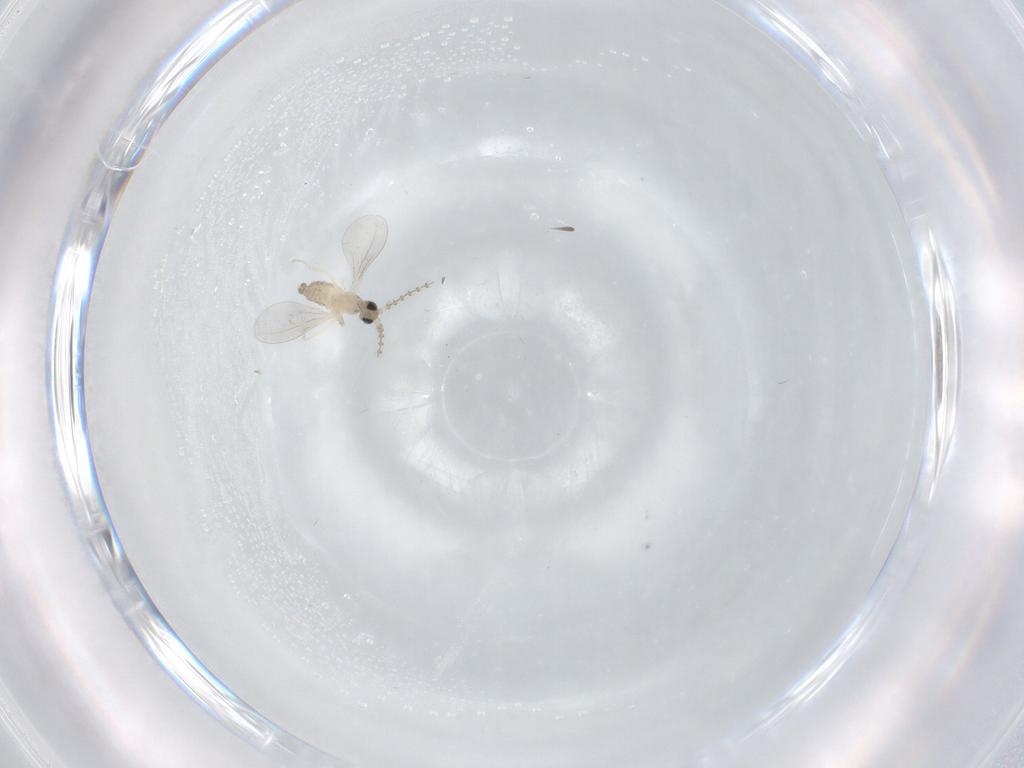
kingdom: Animalia
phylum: Arthropoda
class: Insecta
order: Diptera
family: Cecidomyiidae
